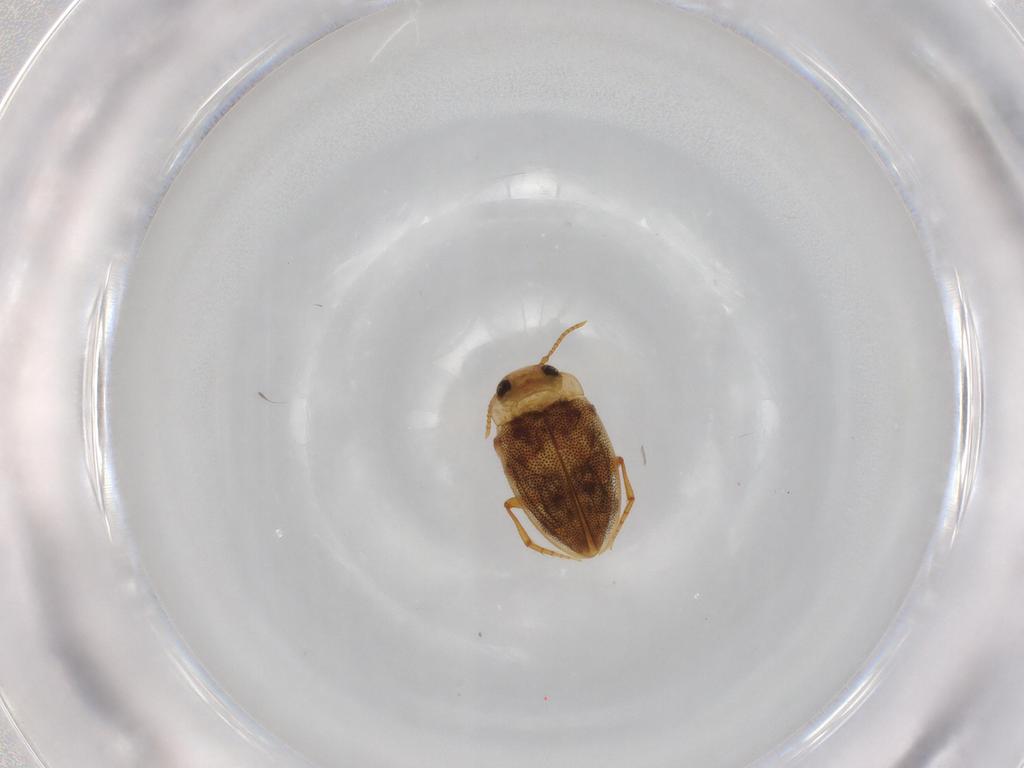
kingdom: Animalia
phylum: Arthropoda
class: Insecta
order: Coleoptera
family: Dytiscidae
